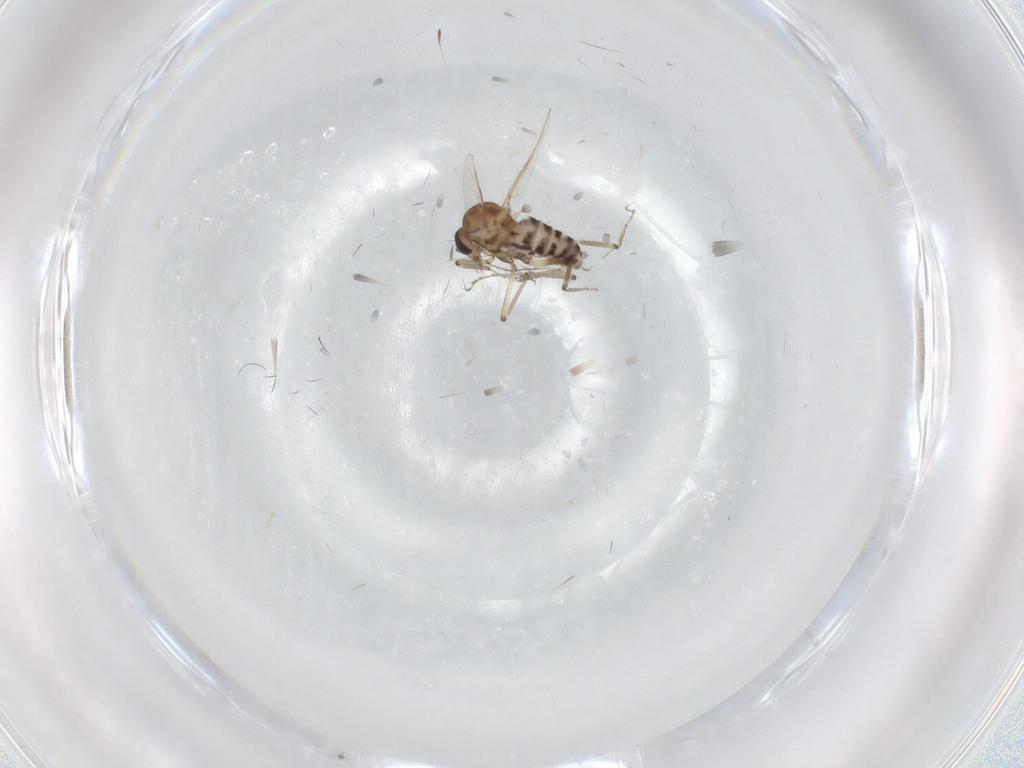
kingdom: Animalia
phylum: Arthropoda
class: Insecta
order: Diptera
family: Ceratopogonidae
